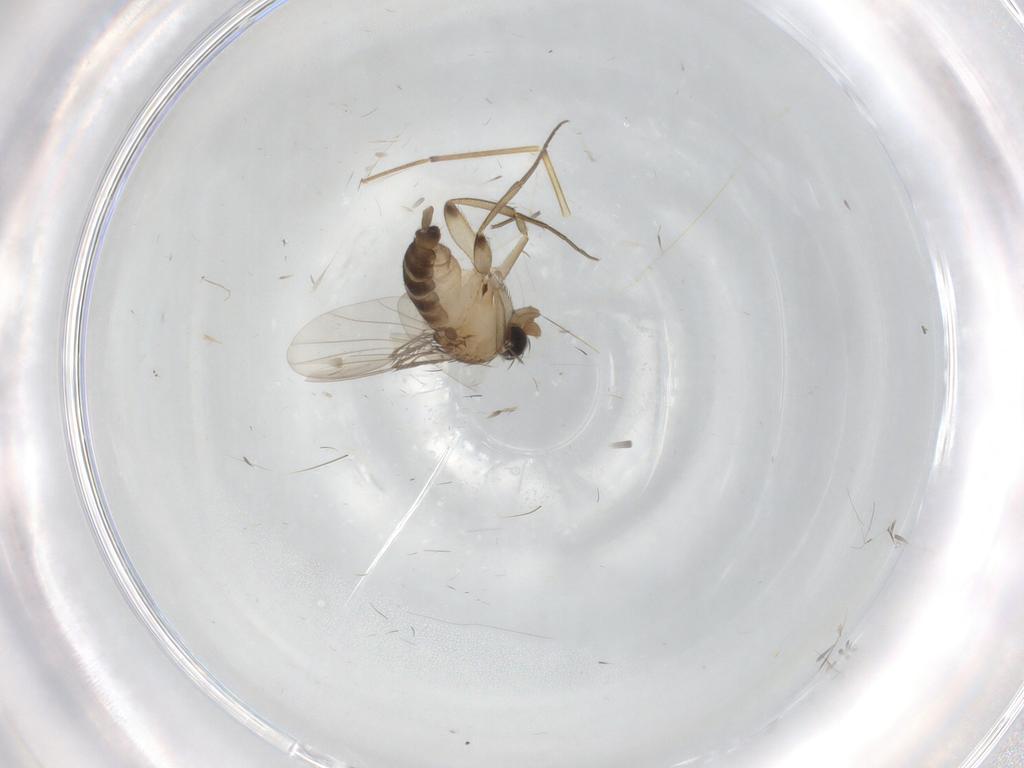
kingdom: Animalia
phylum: Arthropoda
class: Insecta
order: Diptera
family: Phoridae
